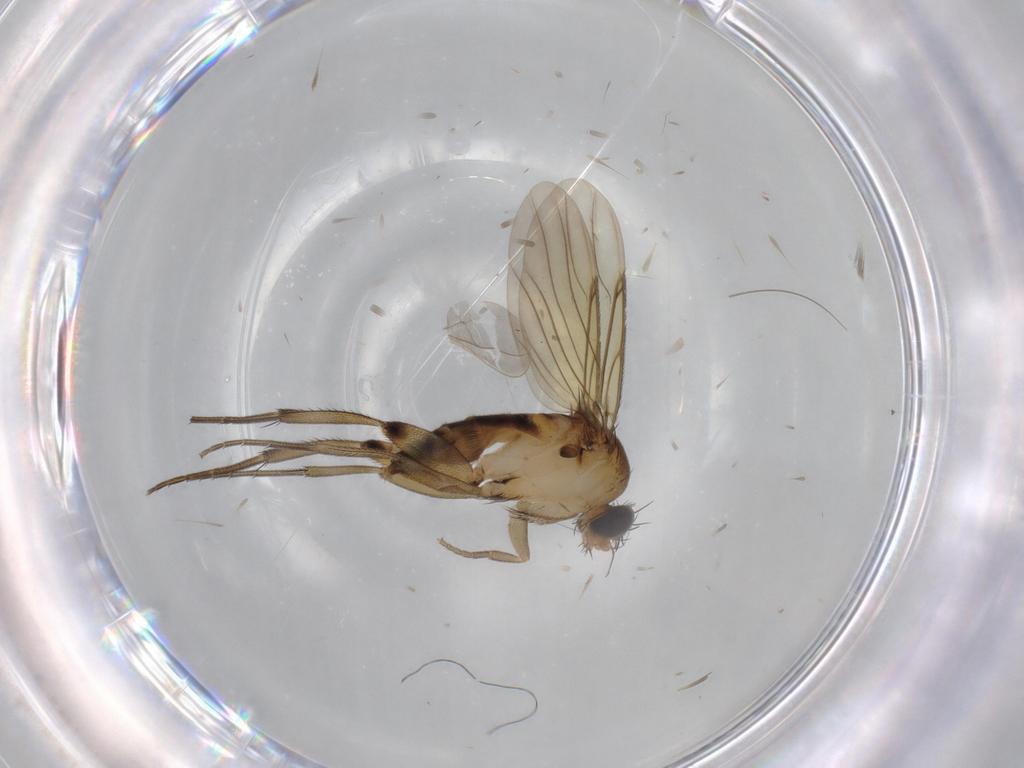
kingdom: Animalia
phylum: Arthropoda
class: Insecta
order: Diptera
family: Phoridae
